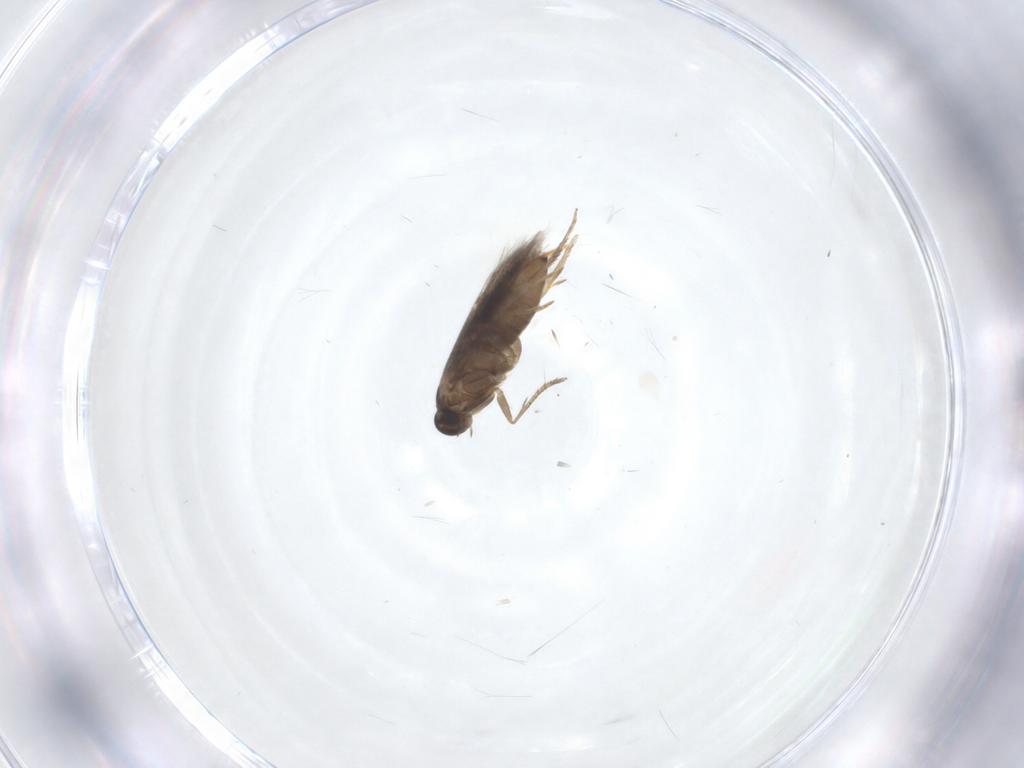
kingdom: Animalia
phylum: Arthropoda
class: Insecta
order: Lepidoptera
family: Heliozelidae
